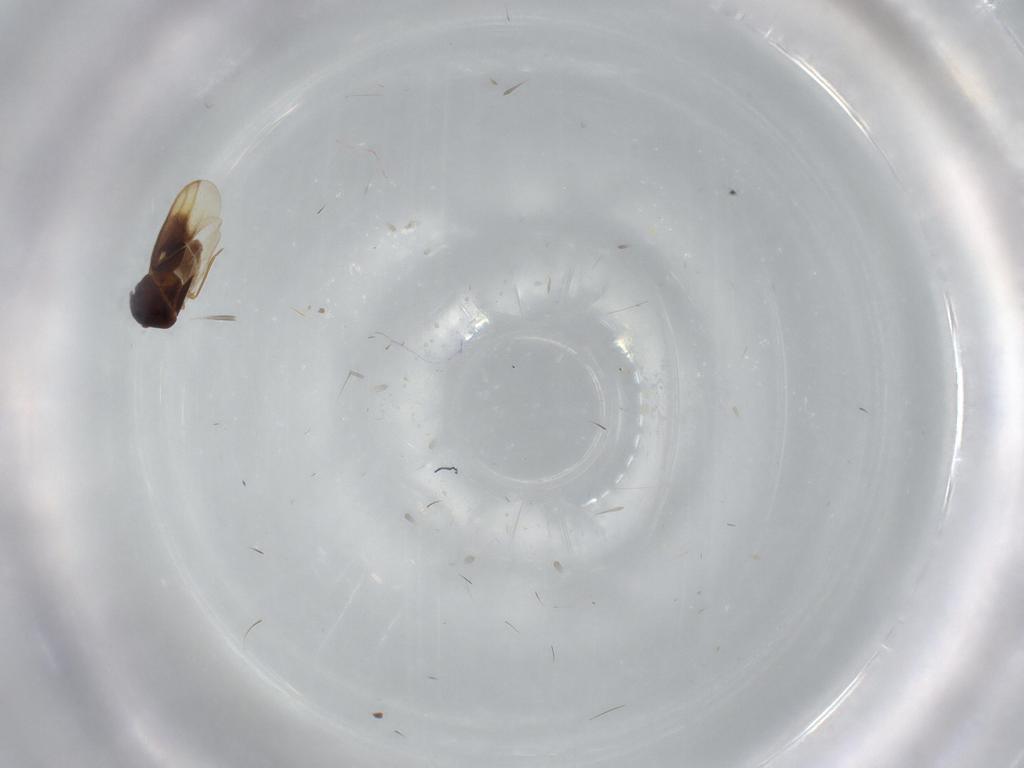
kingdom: Animalia
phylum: Arthropoda
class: Insecta
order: Hemiptera
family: Aleyrodidae
